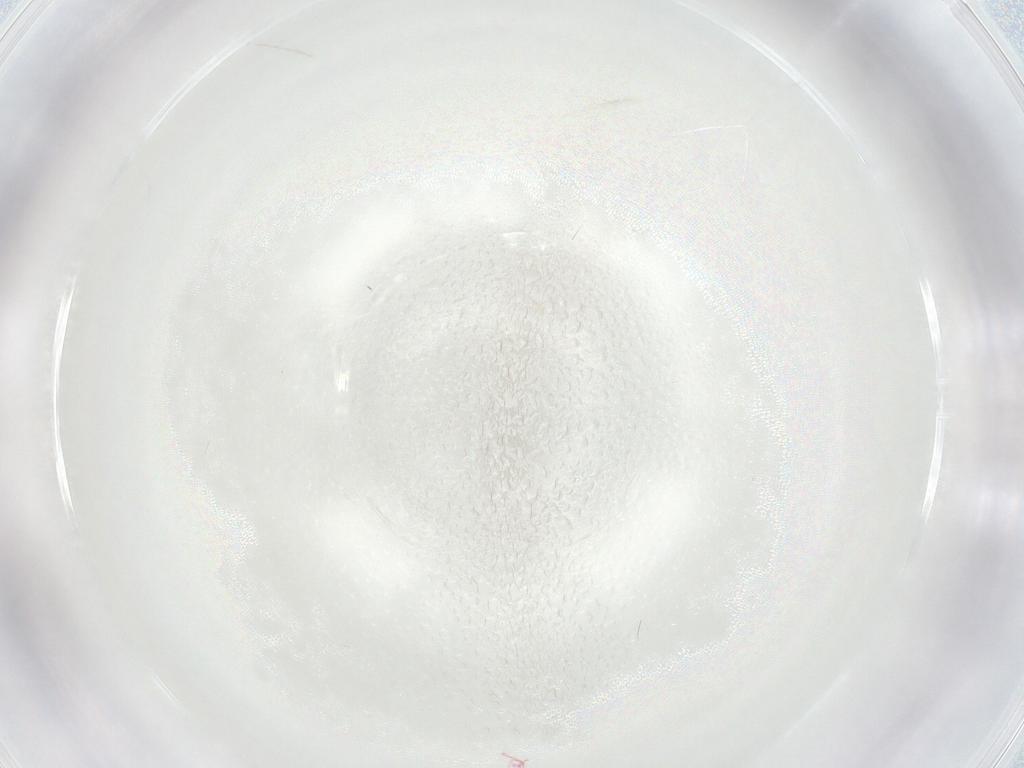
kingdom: Animalia
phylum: Arthropoda
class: Insecta
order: Diptera
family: Chironomidae
